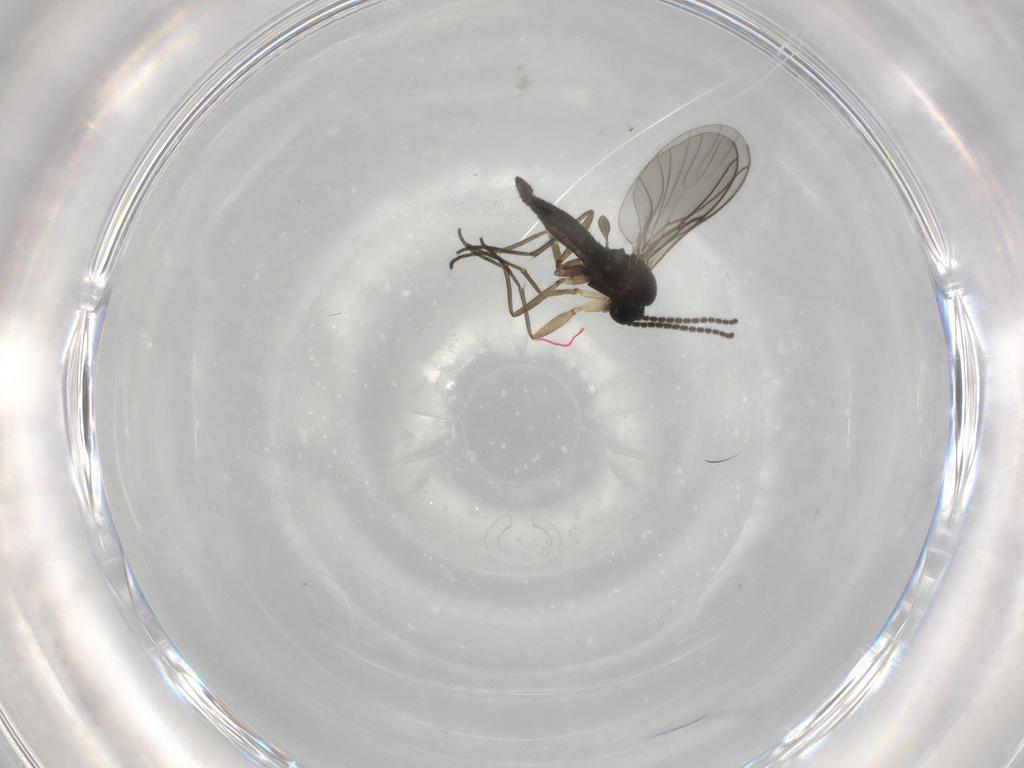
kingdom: Animalia
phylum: Arthropoda
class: Insecta
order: Diptera
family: Sciaridae
